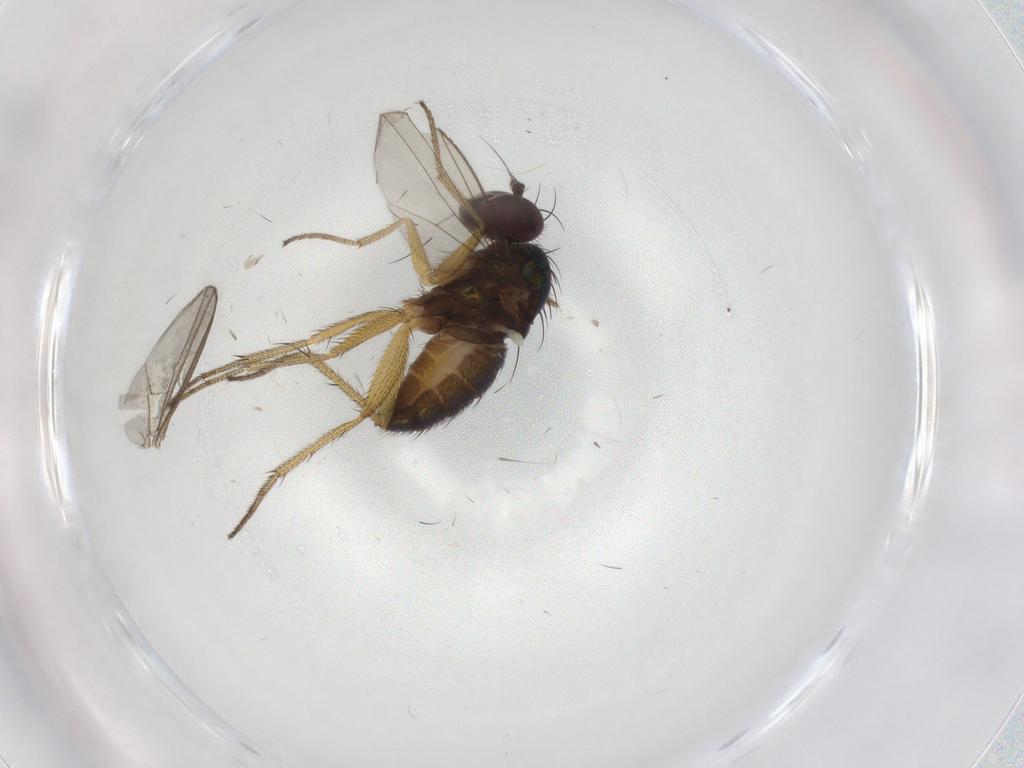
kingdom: Animalia
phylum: Arthropoda
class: Insecta
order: Diptera
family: Dolichopodidae
